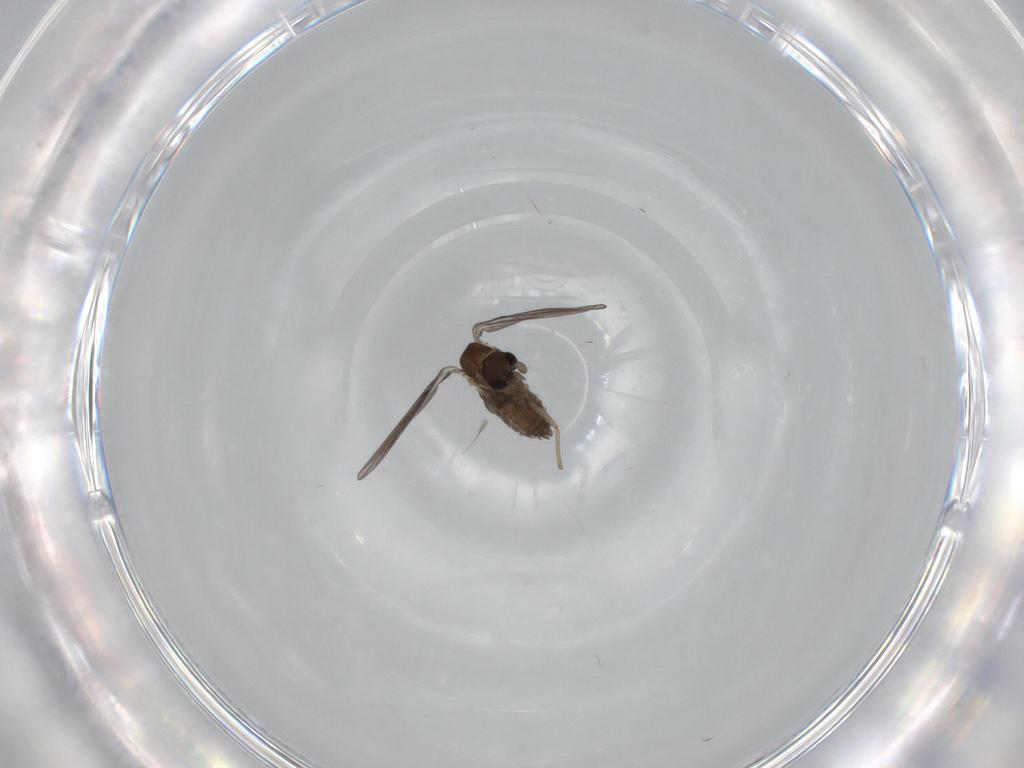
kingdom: Animalia
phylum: Arthropoda
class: Insecta
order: Diptera
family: Psychodidae
